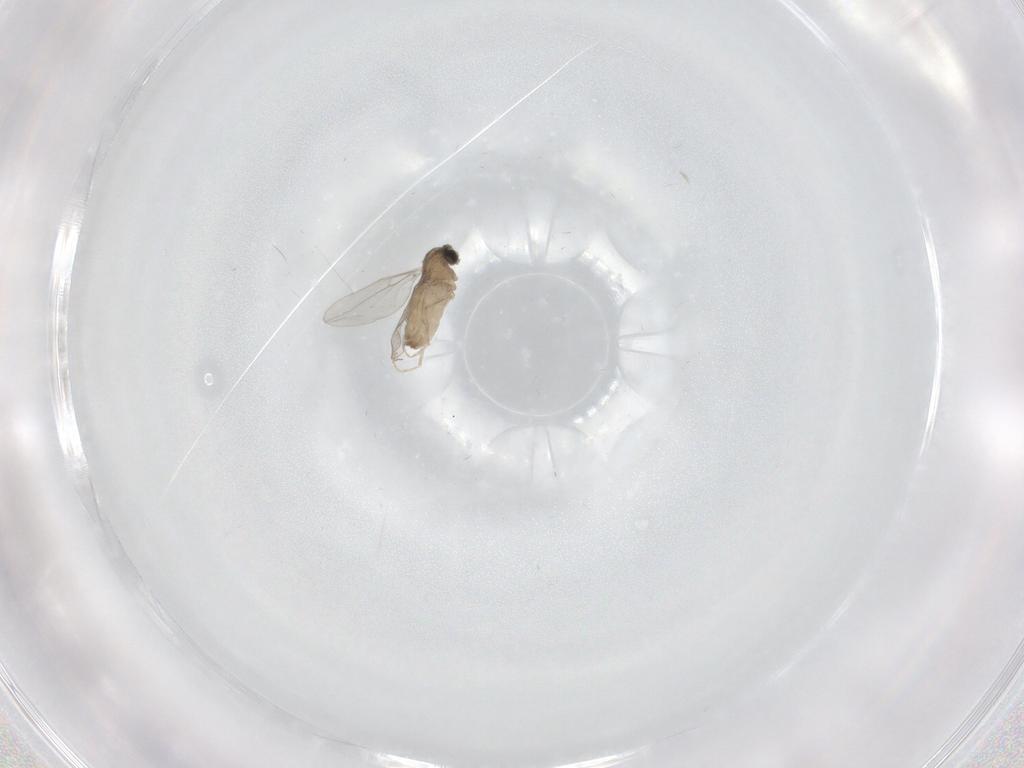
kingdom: Animalia
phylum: Arthropoda
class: Insecta
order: Diptera
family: Cecidomyiidae
